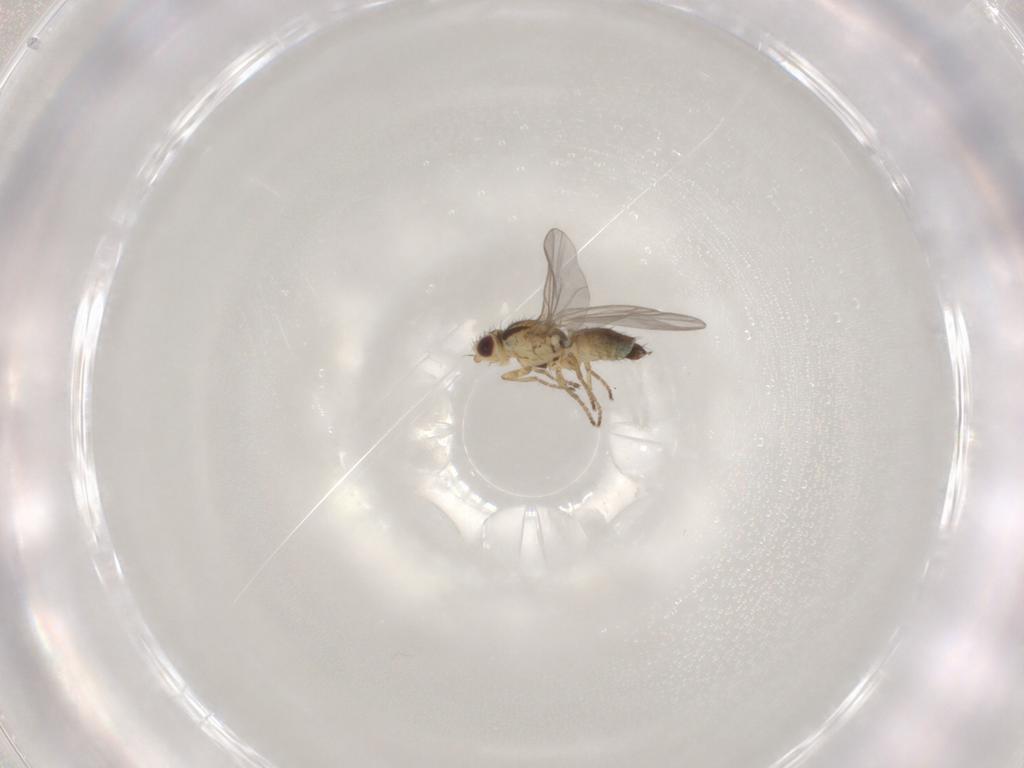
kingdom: Animalia
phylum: Arthropoda
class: Insecta
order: Diptera
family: Agromyzidae
